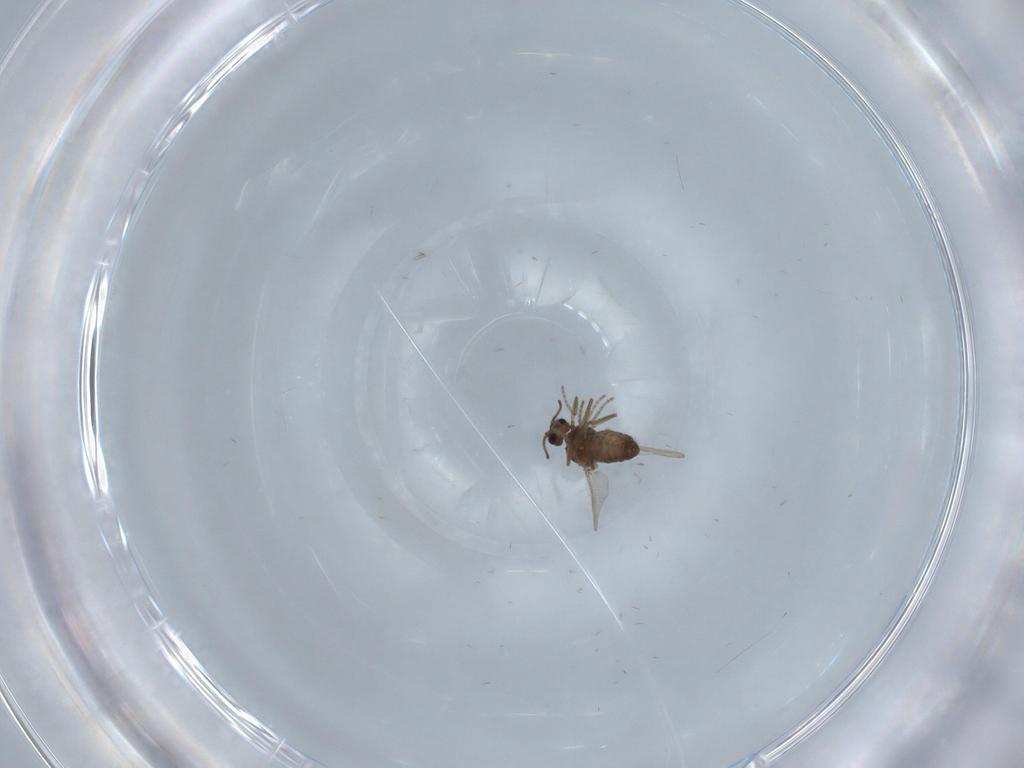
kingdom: Animalia
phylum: Arthropoda
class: Insecta
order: Diptera
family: Ceratopogonidae
